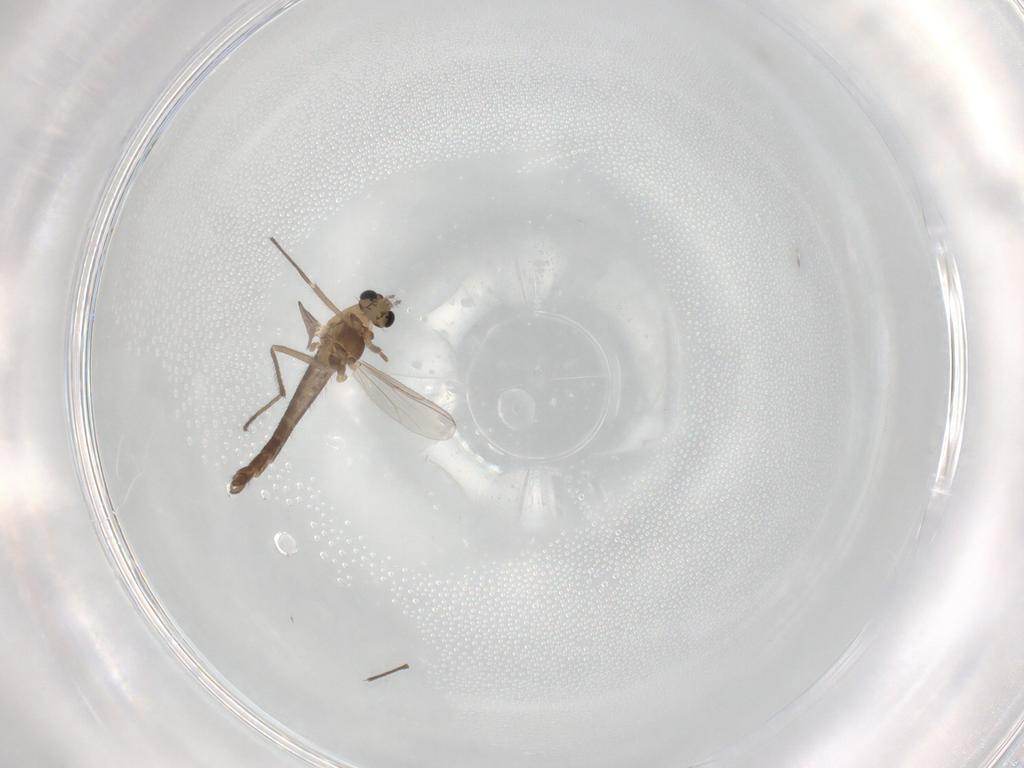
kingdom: Animalia
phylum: Arthropoda
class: Insecta
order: Diptera
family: Chironomidae
